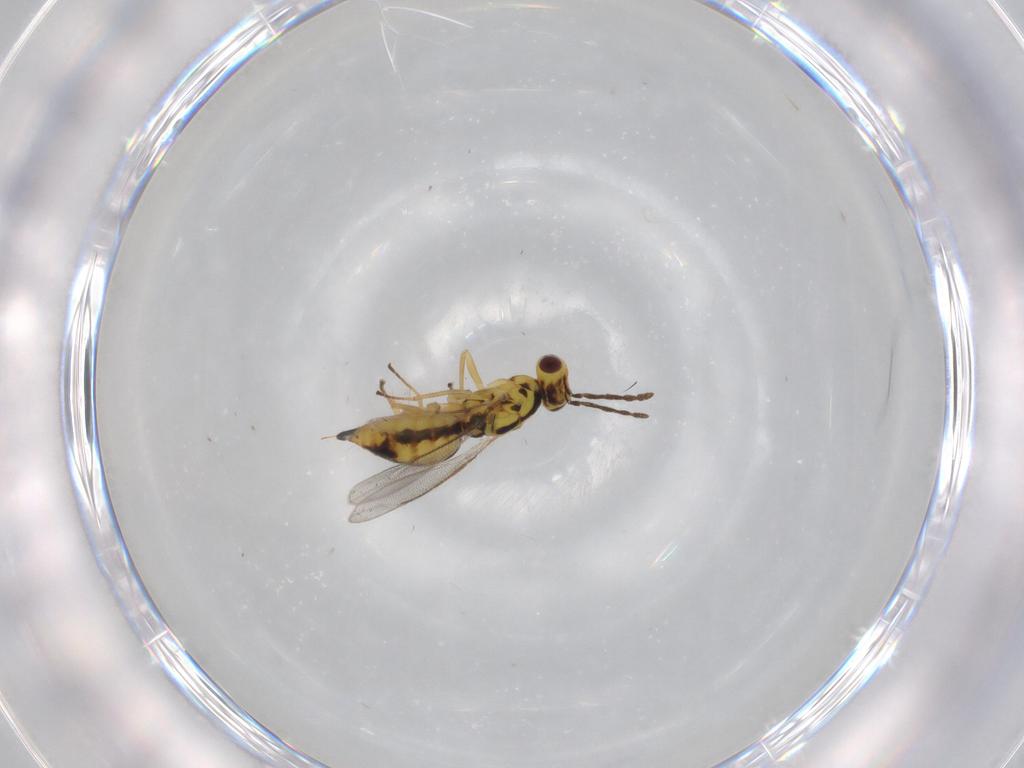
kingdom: Animalia
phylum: Arthropoda
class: Insecta
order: Hymenoptera
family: Eulophidae
